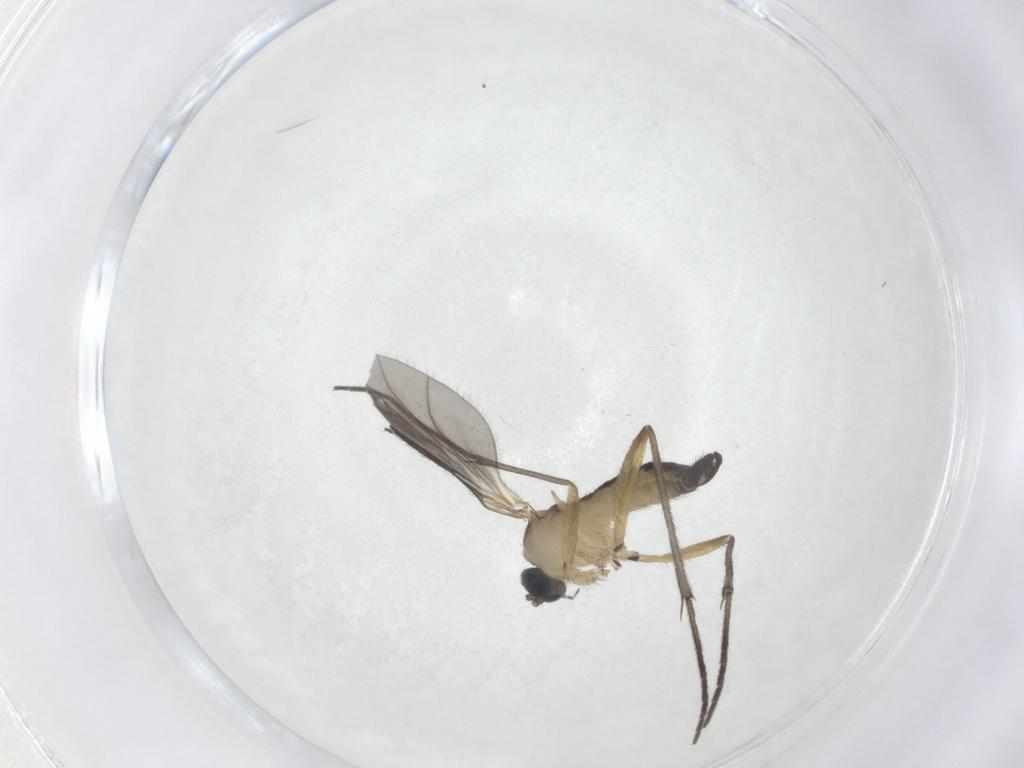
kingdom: Animalia
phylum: Arthropoda
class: Insecta
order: Diptera
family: Sciaridae
